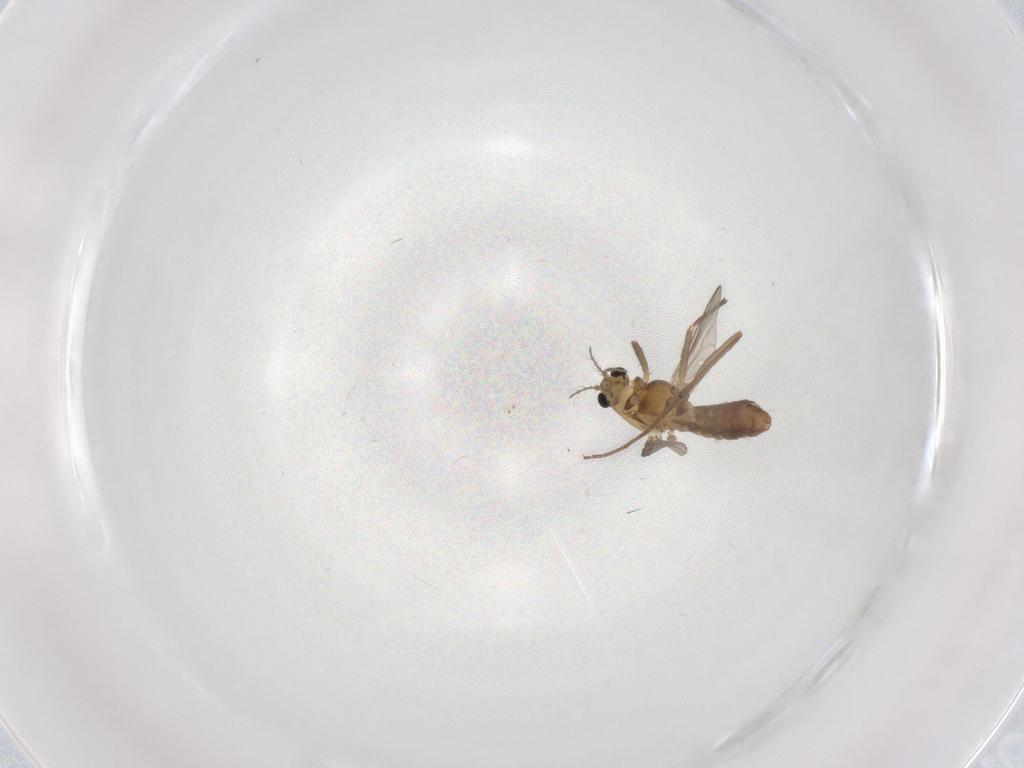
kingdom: Animalia
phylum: Arthropoda
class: Insecta
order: Diptera
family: Chironomidae
